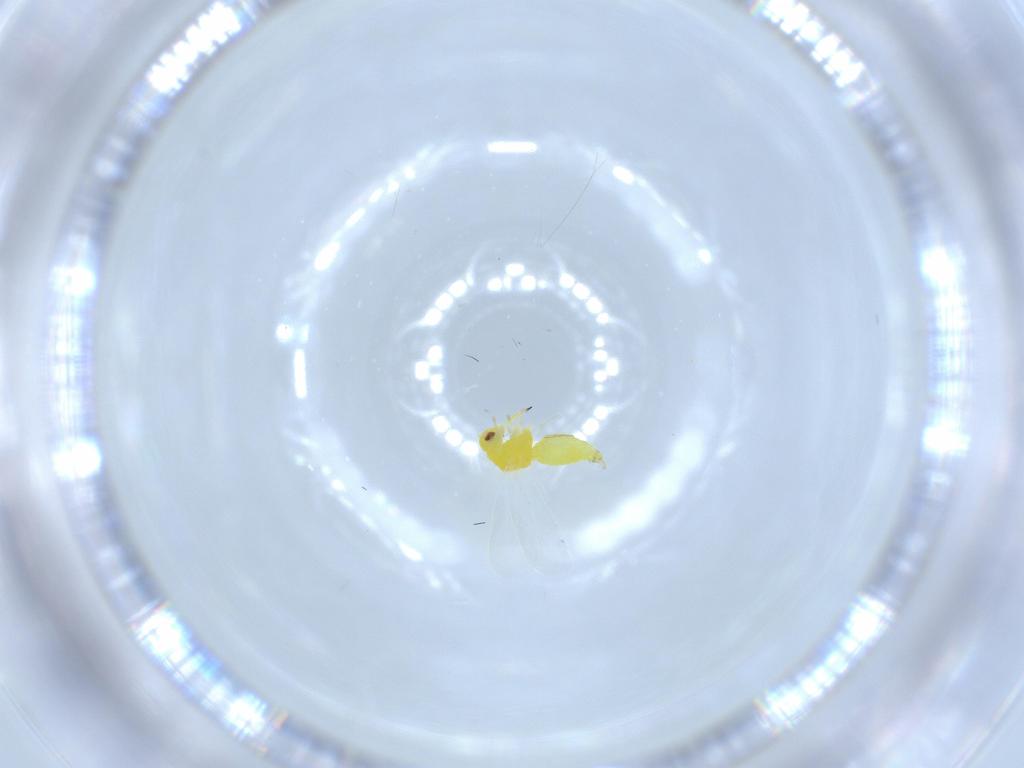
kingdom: Animalia
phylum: Arthropoda
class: Insecta
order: Hemiptera
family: Aleyrodidae
